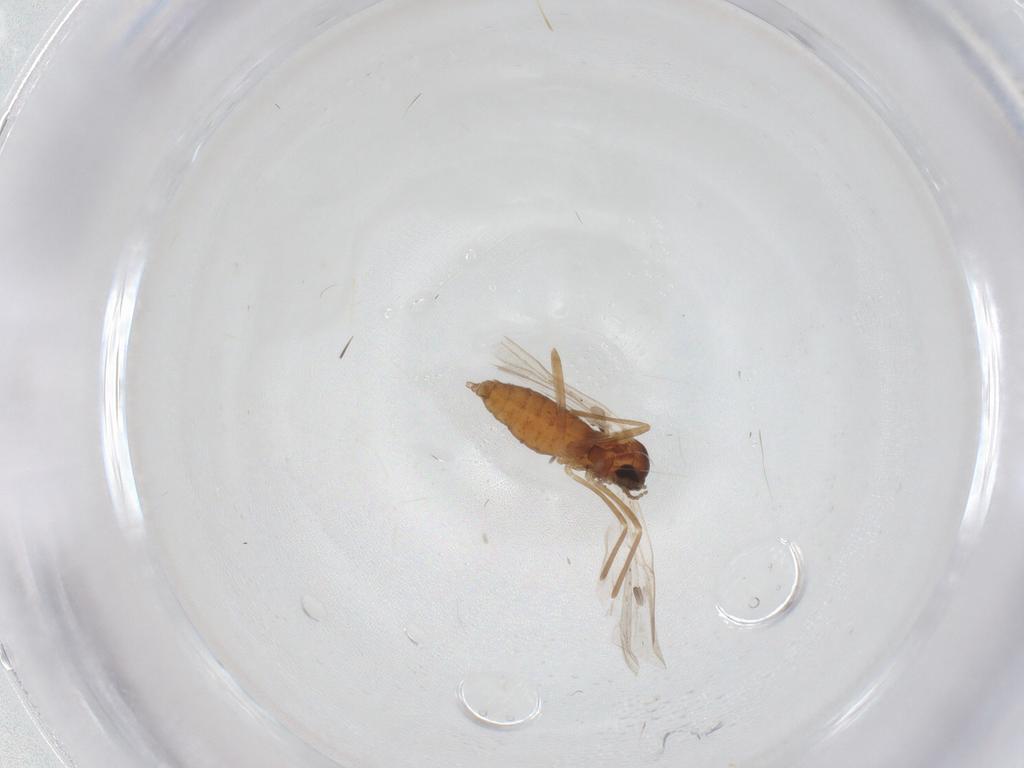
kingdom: Animalia
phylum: Arthropoda
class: Insecta
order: Diptera
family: Cecidomyiidae
